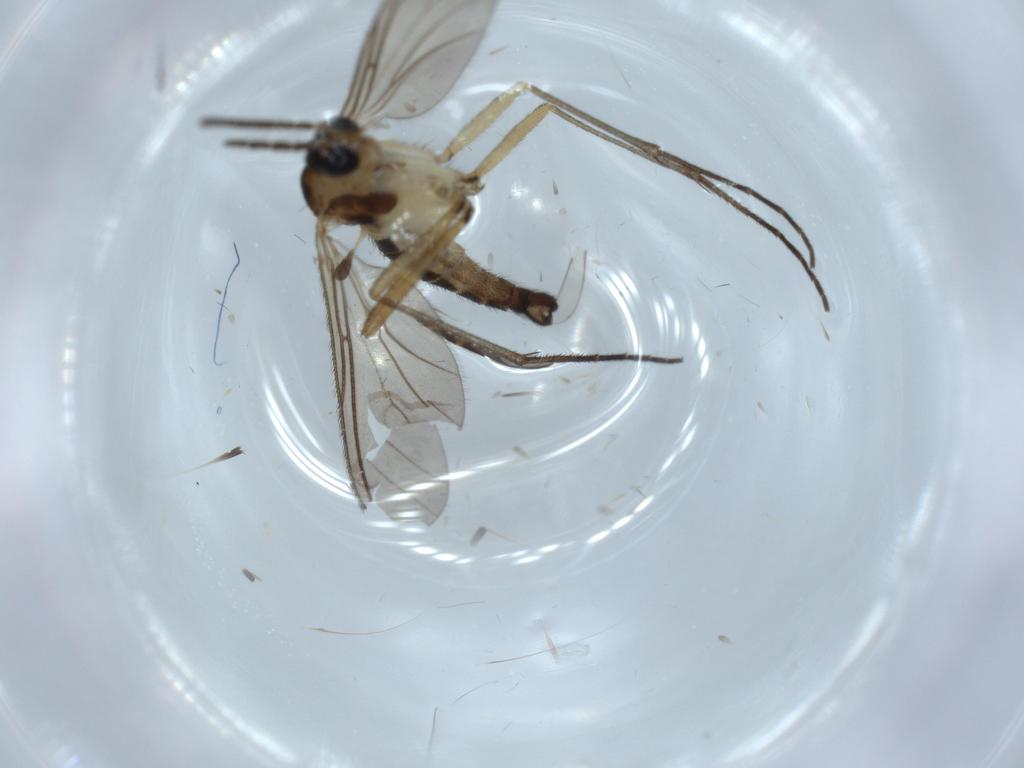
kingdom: Animalia
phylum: Arthropoda
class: Insecta
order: Diptera
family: Sciaridae
